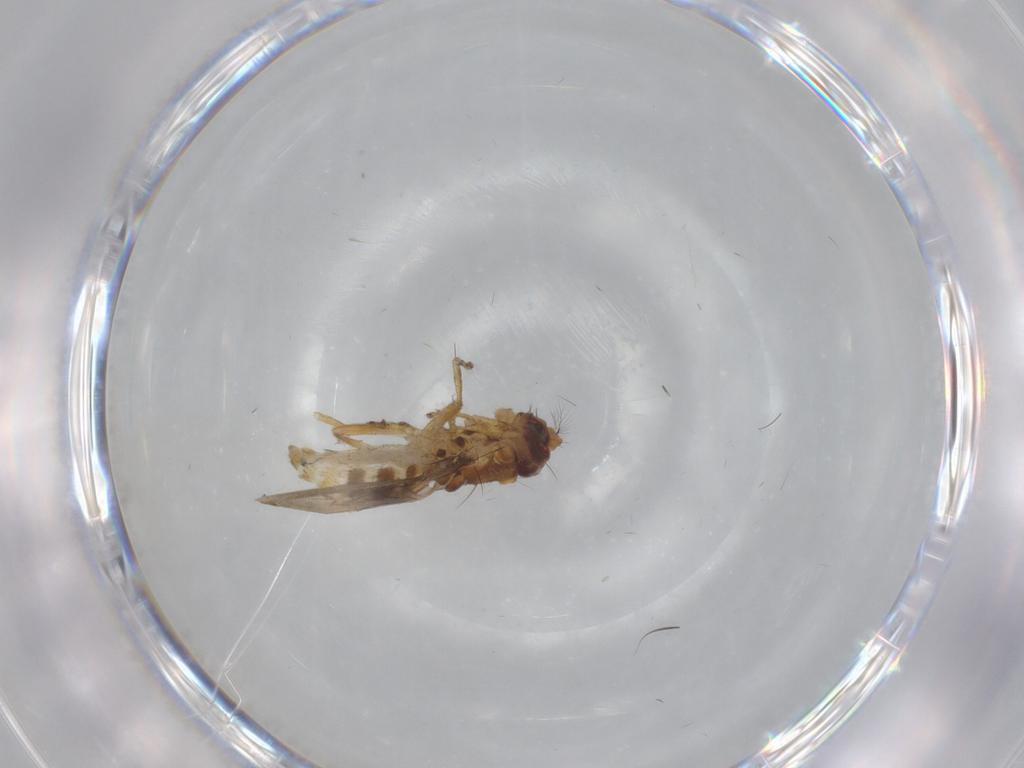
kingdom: Animalia
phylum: Arthropoda
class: Insecta
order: Diptera
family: Periscelididae
